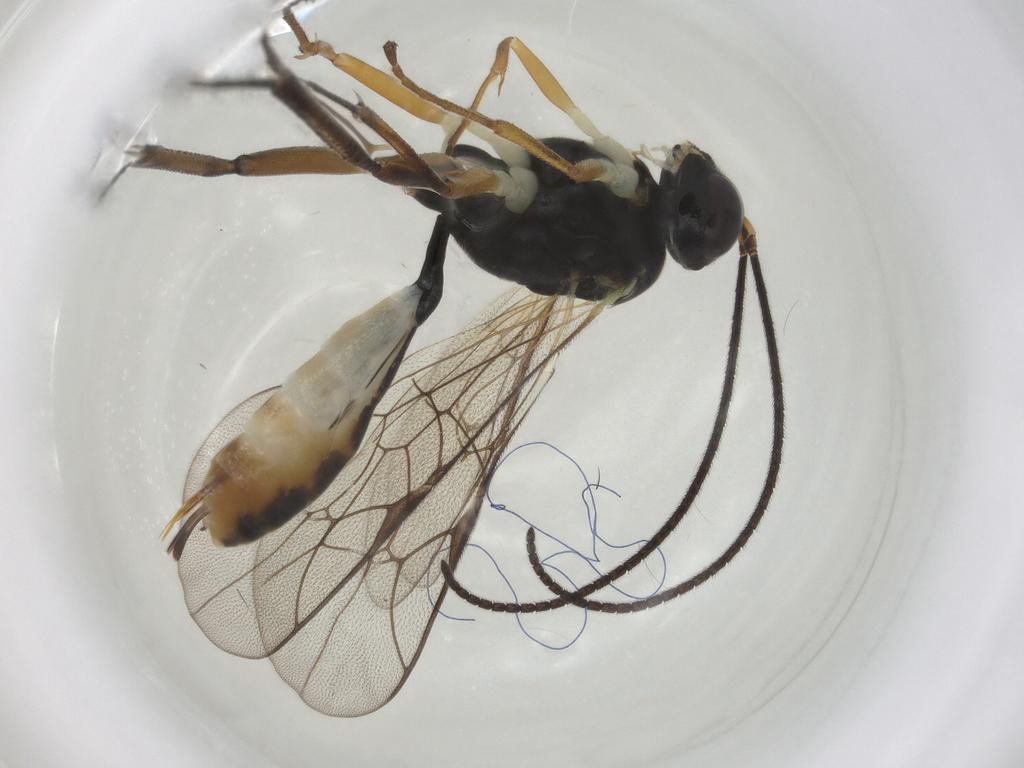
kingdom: Animalia
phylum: Arthropoda
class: Insecta
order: Hymenoptera
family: Ichneumonidae
